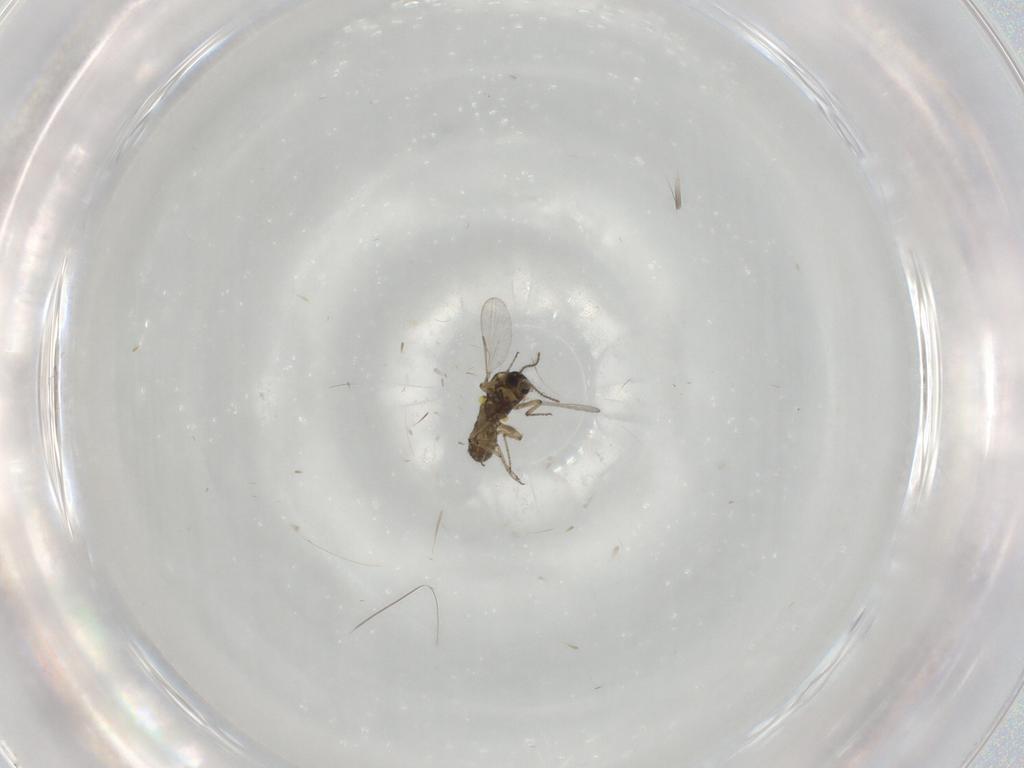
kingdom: Animalia
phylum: Arthropoda
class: Insecta
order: Diptera
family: Ceratopogonidae
